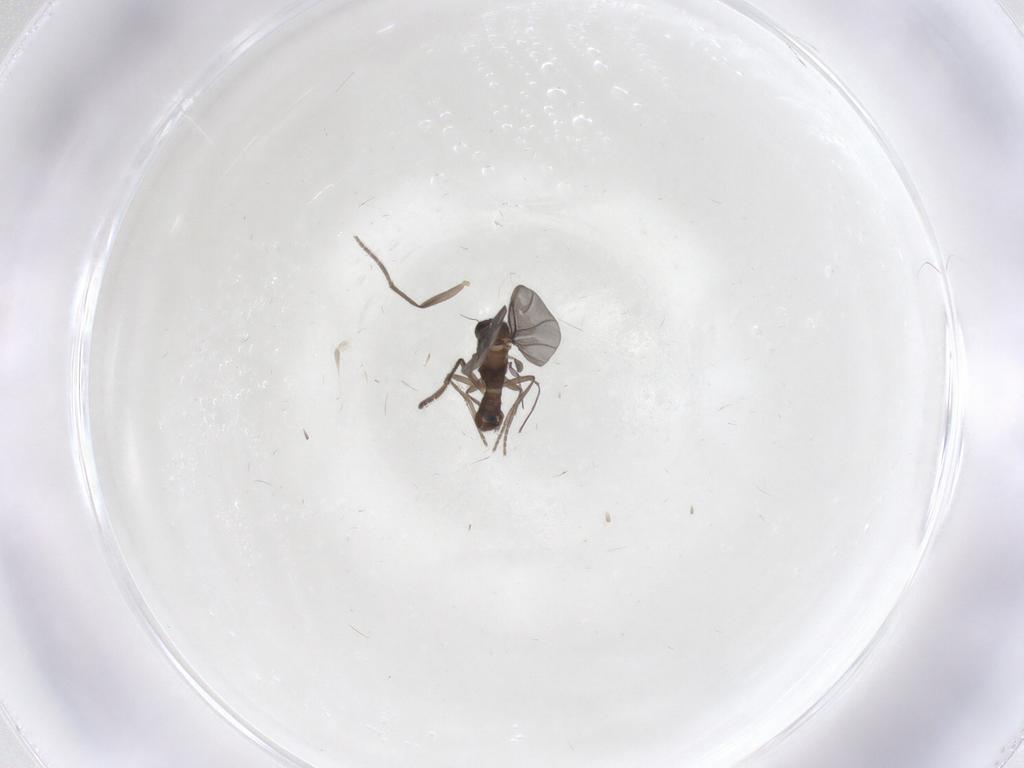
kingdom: Animalia
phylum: Arthropoda
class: Insecta
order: Diptera
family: Phoridae
